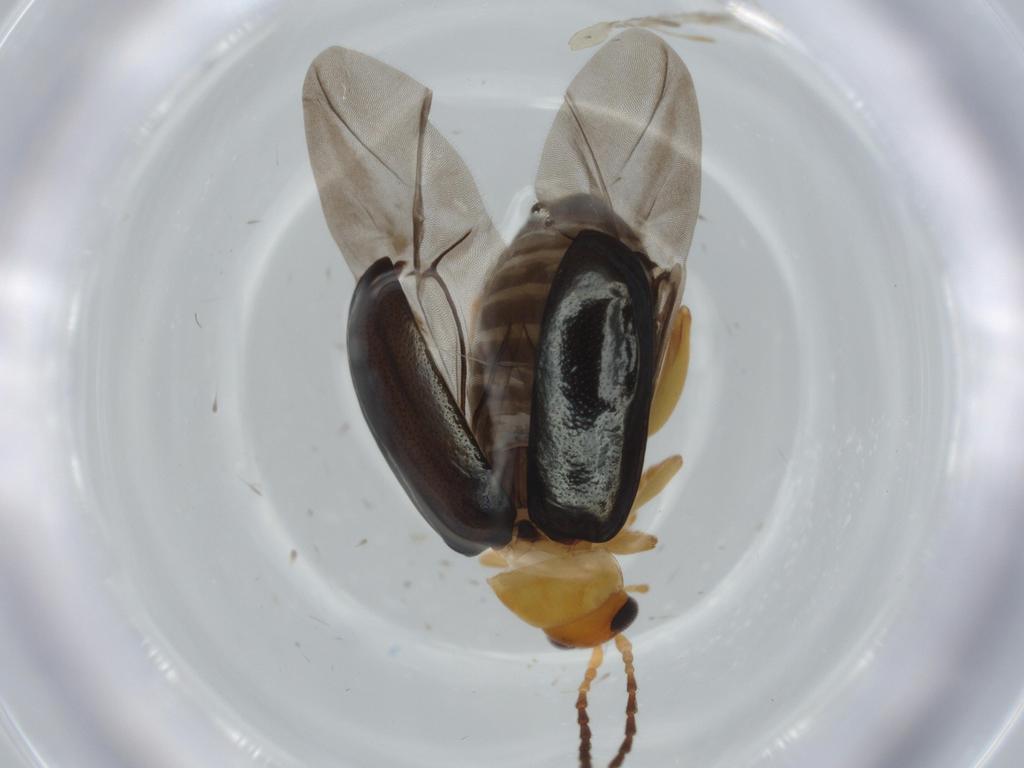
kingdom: Animalia
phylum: Arthropoda
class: Insecta
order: Coleoptera
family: Chrysomelidae
